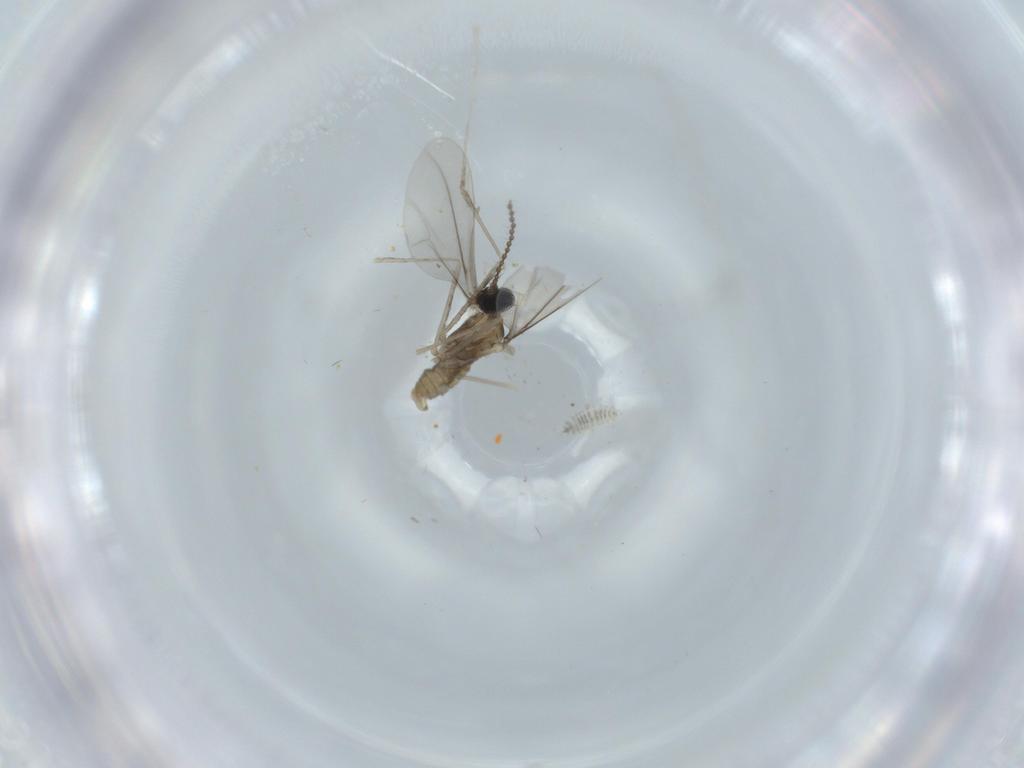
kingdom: Animalia
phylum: Arthropoda
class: Insecta
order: Diptera
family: Cecidomyiidae
